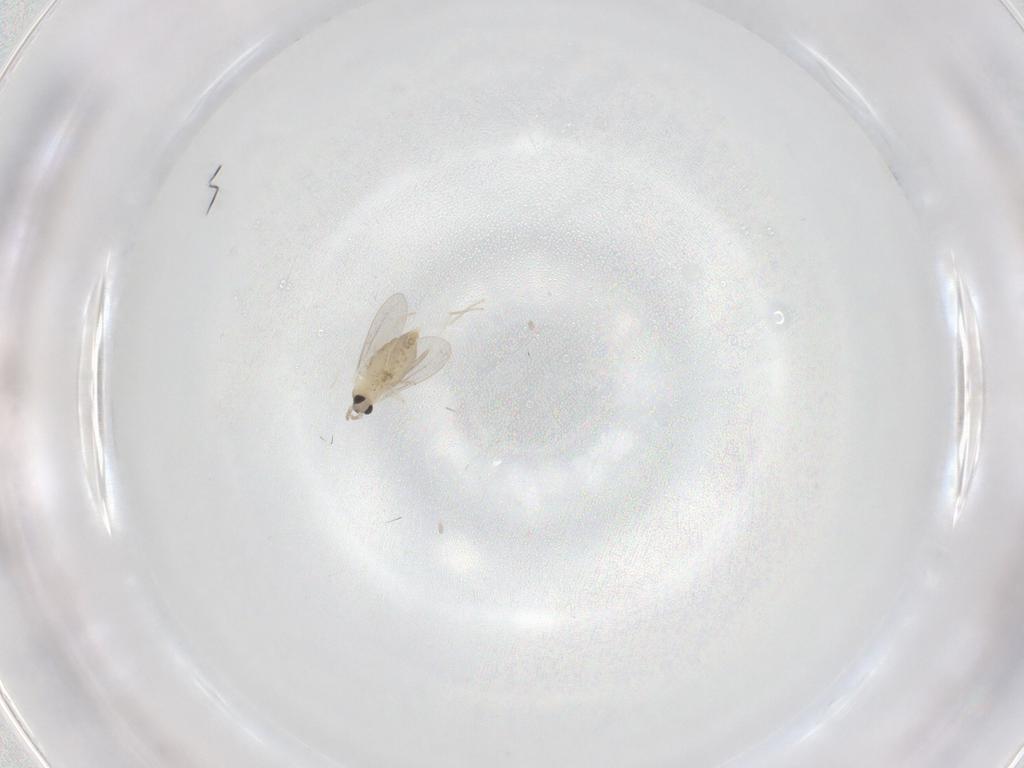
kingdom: Animalia
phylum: Arthropoda
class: Insecta
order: Diptera
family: Cecidomyiidae
